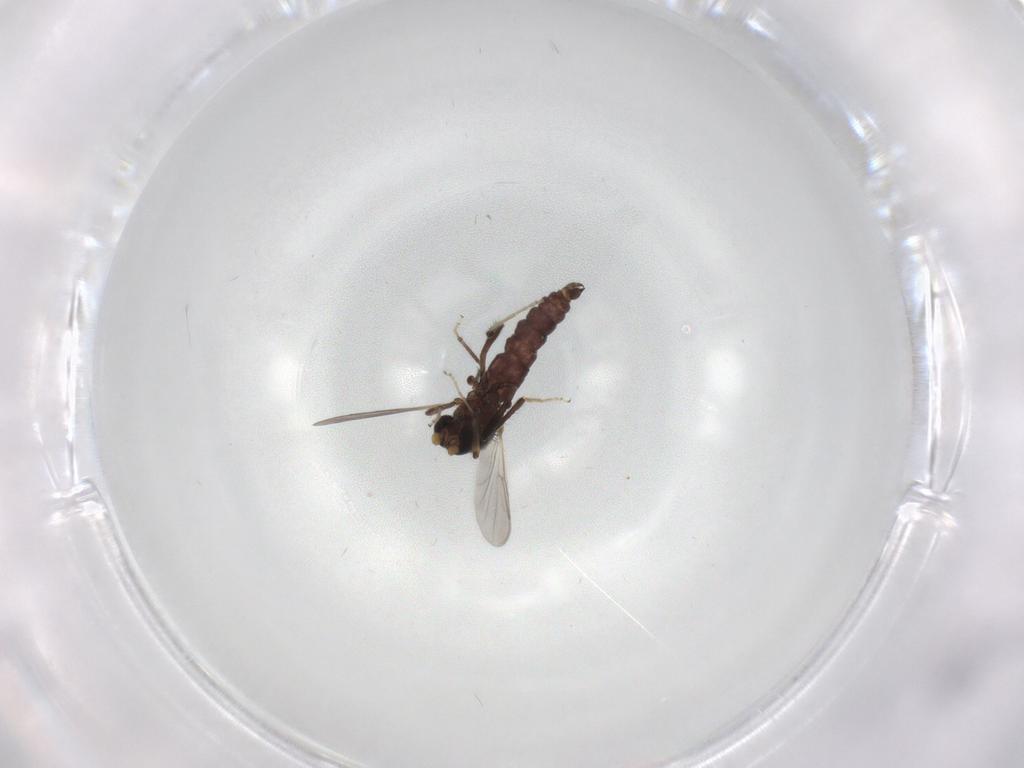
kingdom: Animalia
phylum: Arthropoda
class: Insecta
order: Diptera
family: Ceratopogonidae
